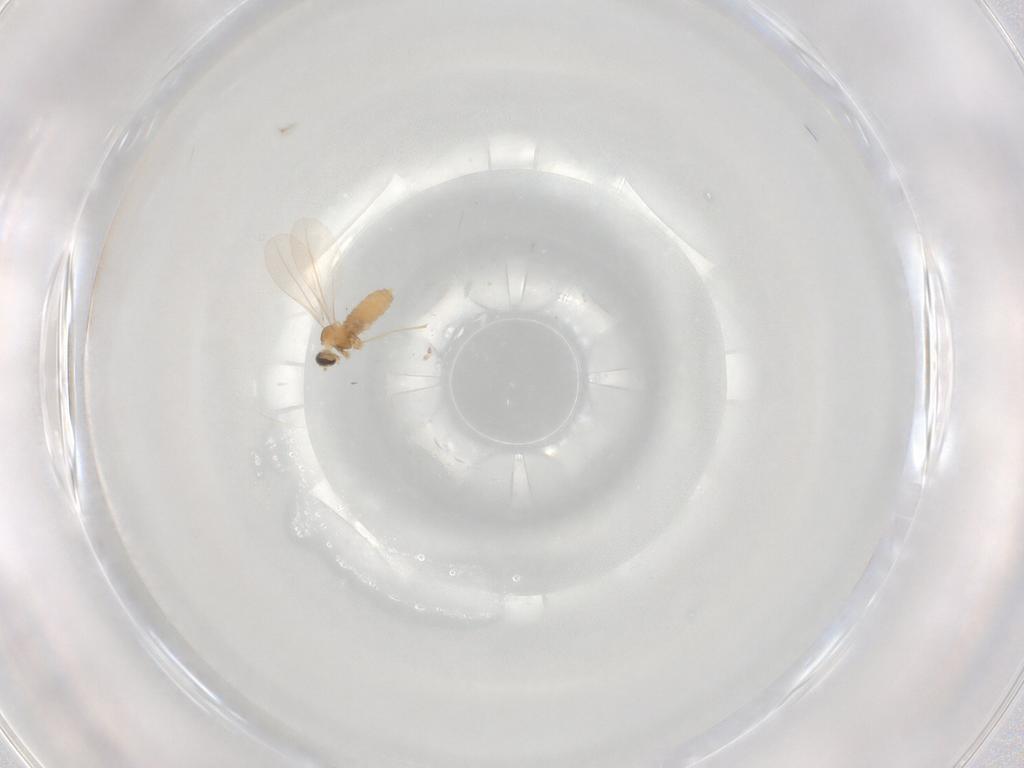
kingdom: Animalia
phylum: Arthropoda
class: Insecta
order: Diptera
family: Cecidomyiidae
